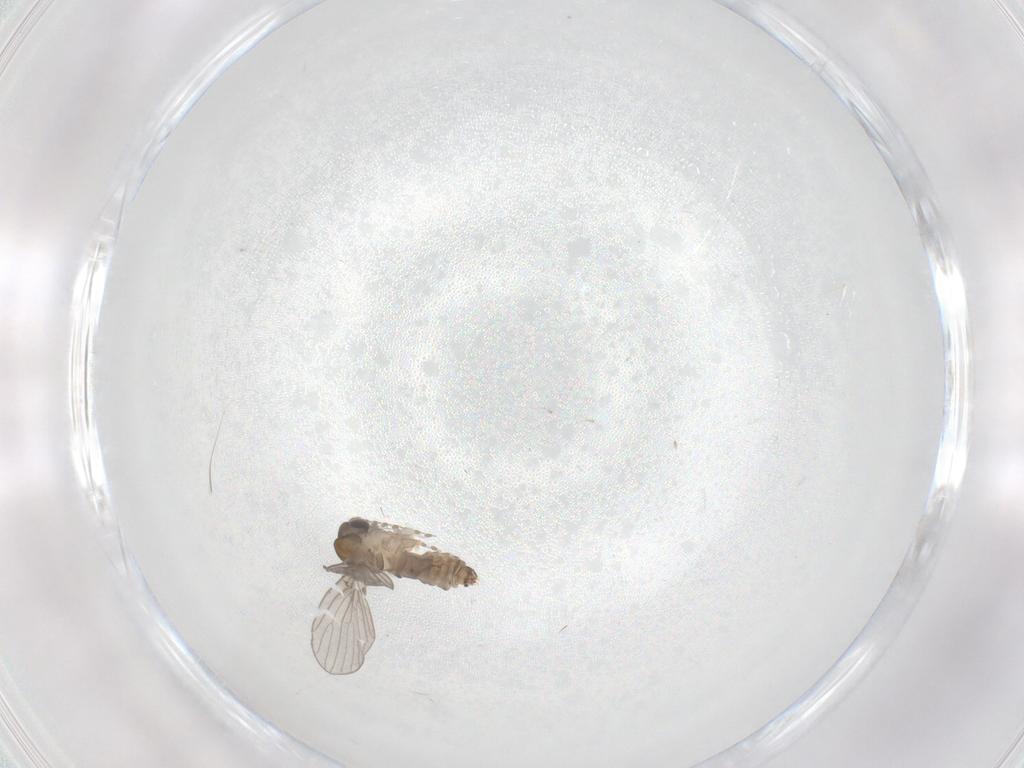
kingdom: Animalia
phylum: Arthropoda
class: Insecta
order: Diptera
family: Psychodidae
